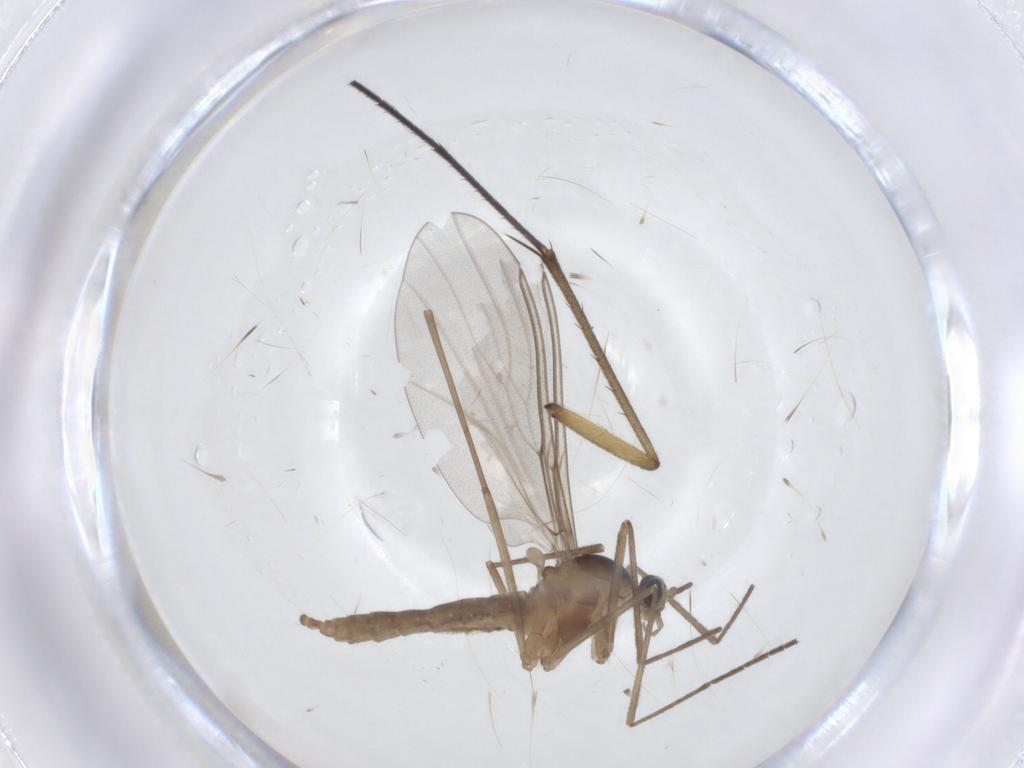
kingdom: Animalia
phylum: Arthropoda
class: Insecta
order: Diptera
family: Cecidomyiidae
